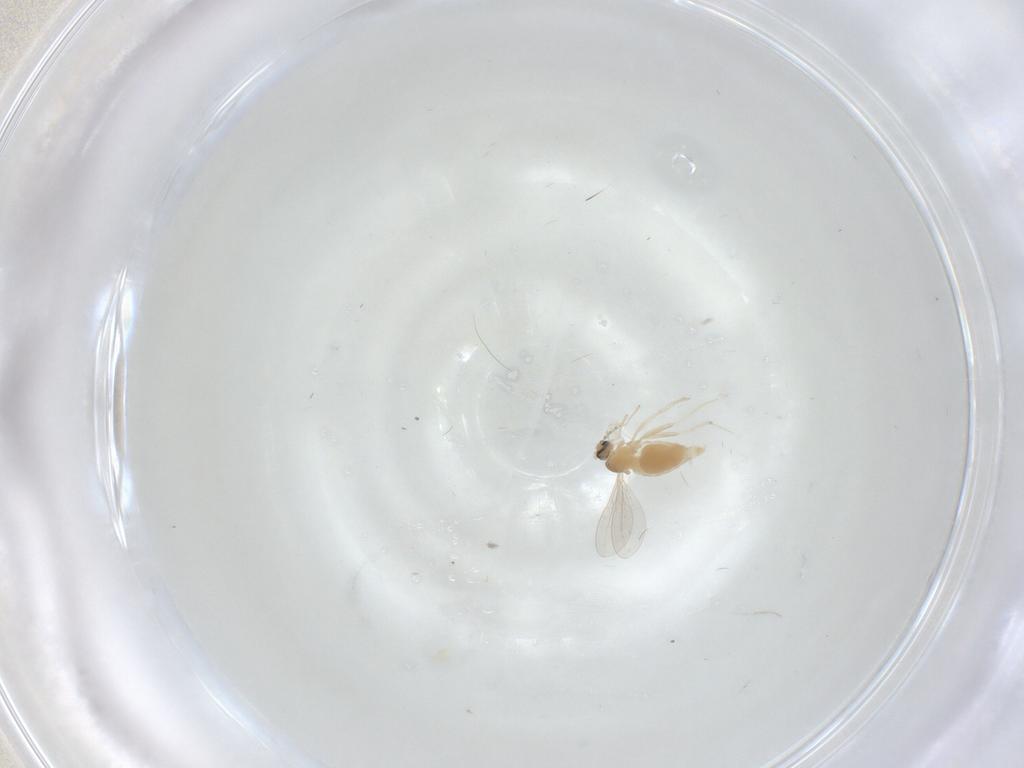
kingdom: Animalia
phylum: Arthropoda
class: Insecta
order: Diptera
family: Cecidomyiidae
